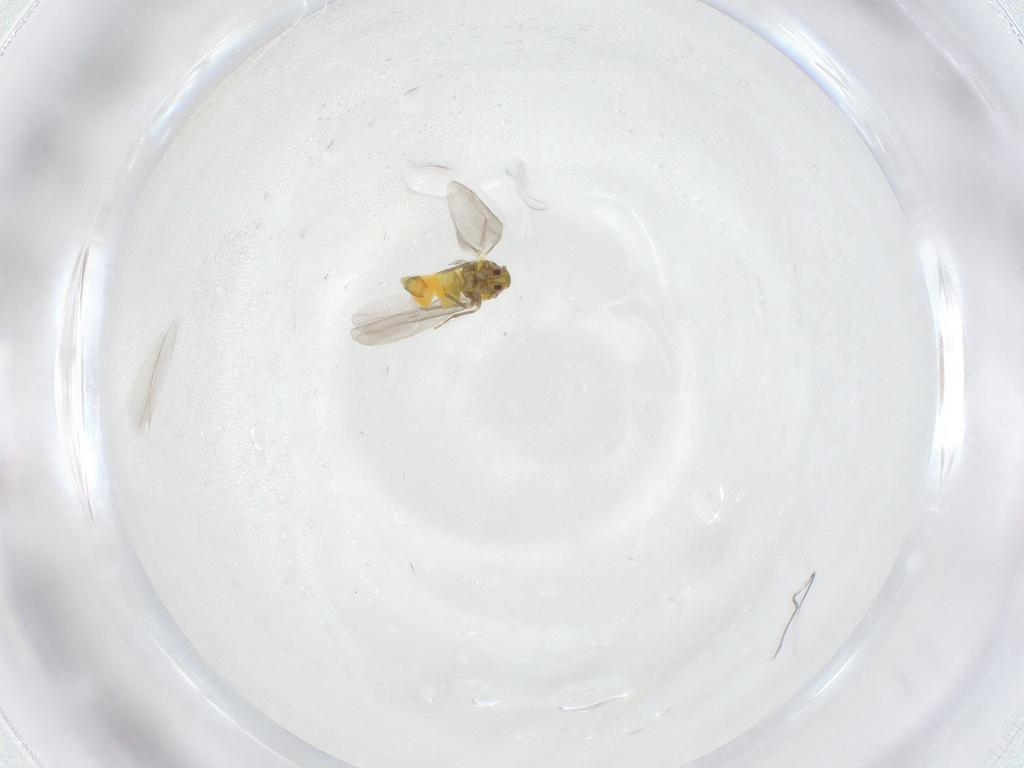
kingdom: Animalia
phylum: Arthropoda
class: Insecta
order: Hemiptera
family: Aleyrodidae
